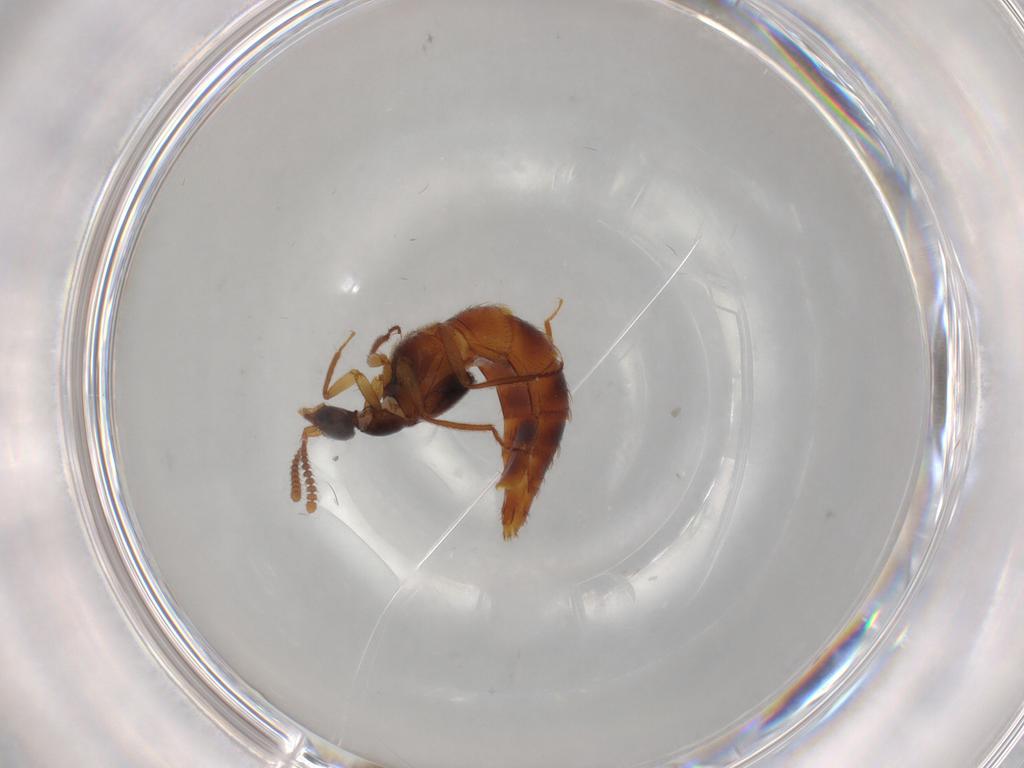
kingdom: Animalia
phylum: Arthropoda
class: Insecta
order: Coleoptera
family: Staphylinidae
